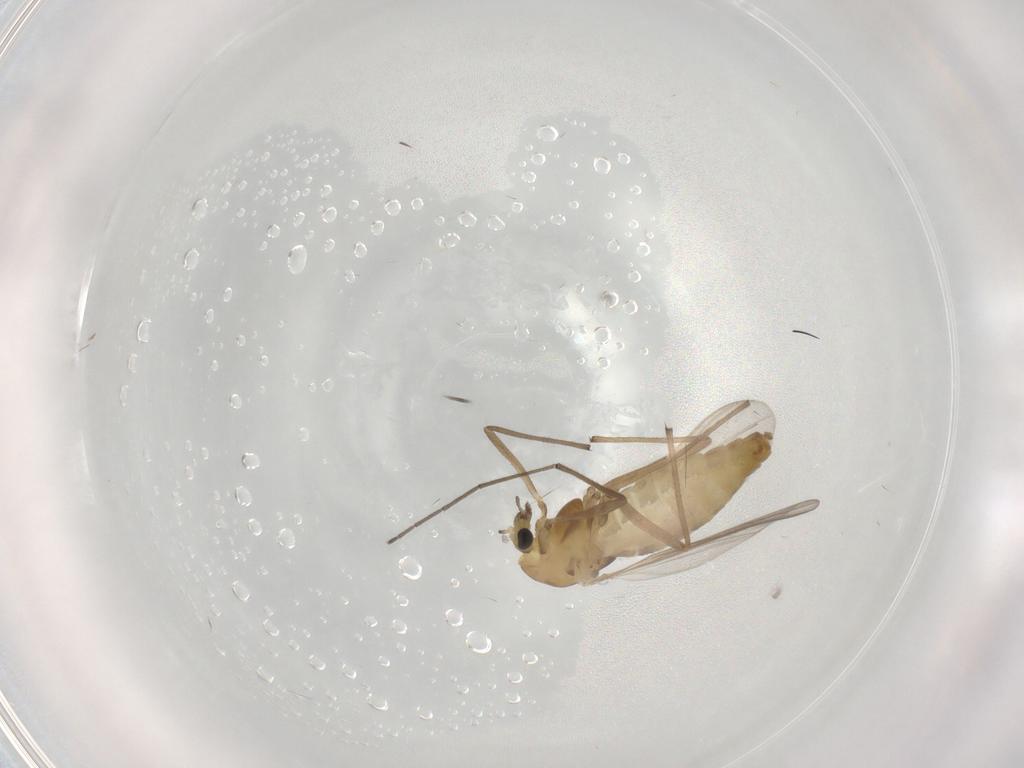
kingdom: Animalia
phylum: Arthropoda
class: Insecta
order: Diptera
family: Chironomidae
